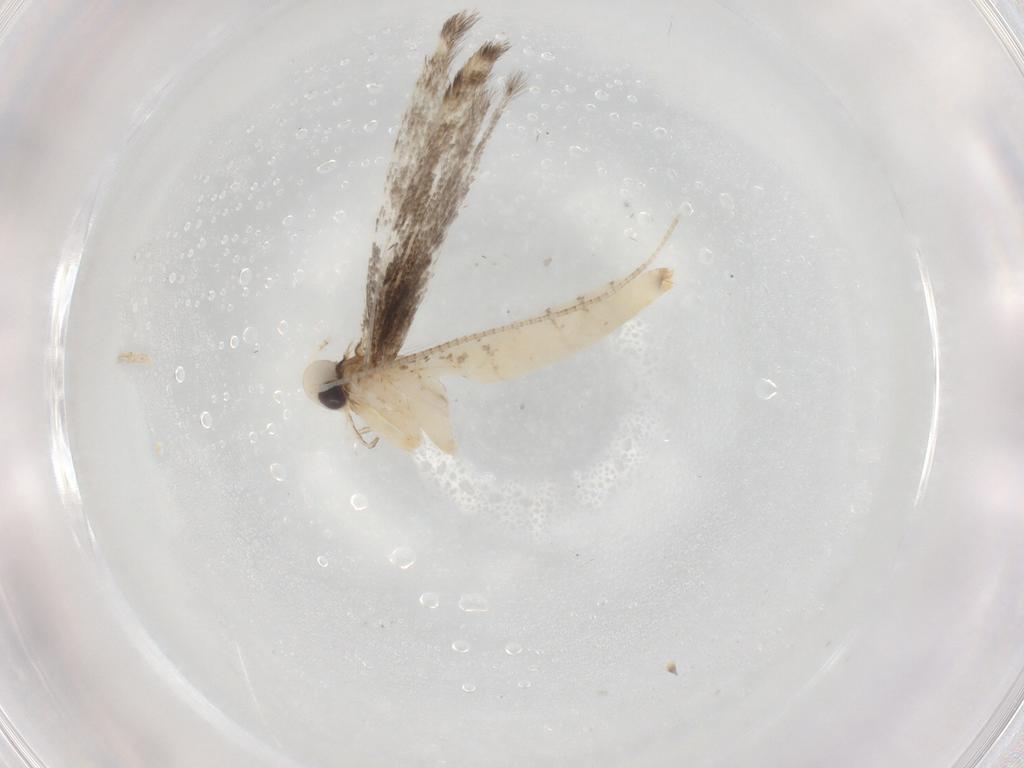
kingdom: Animalia
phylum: Arthropoda
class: Insecta
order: Lepidoptera
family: Gracillariidae
